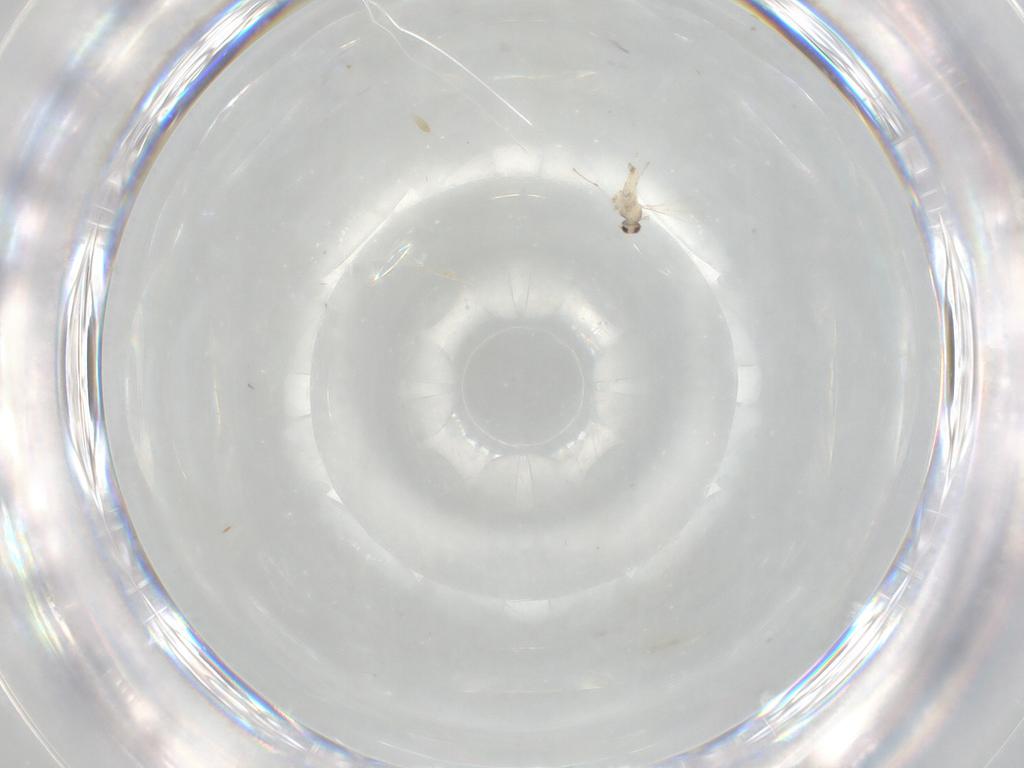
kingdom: Animalia
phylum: Arthropoda
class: Insecta
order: Diptera
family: Cecidomyiidae
